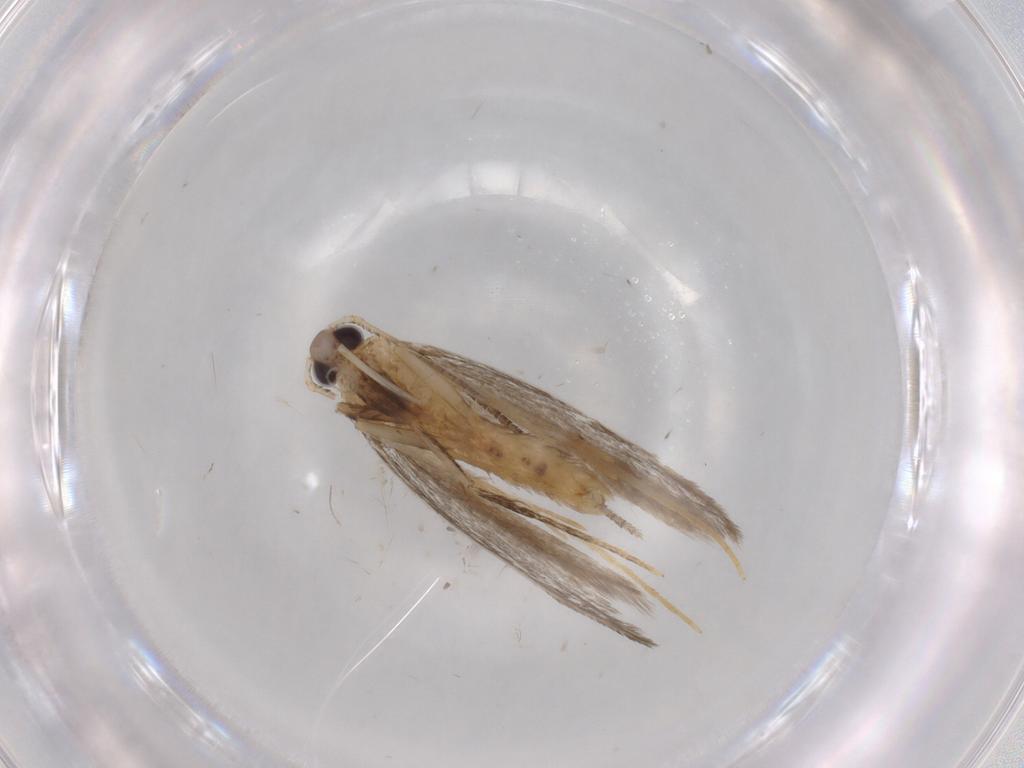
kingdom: Animalia
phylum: Arthropoda
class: Insecta
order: Lepidoptera
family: Autostichidae
